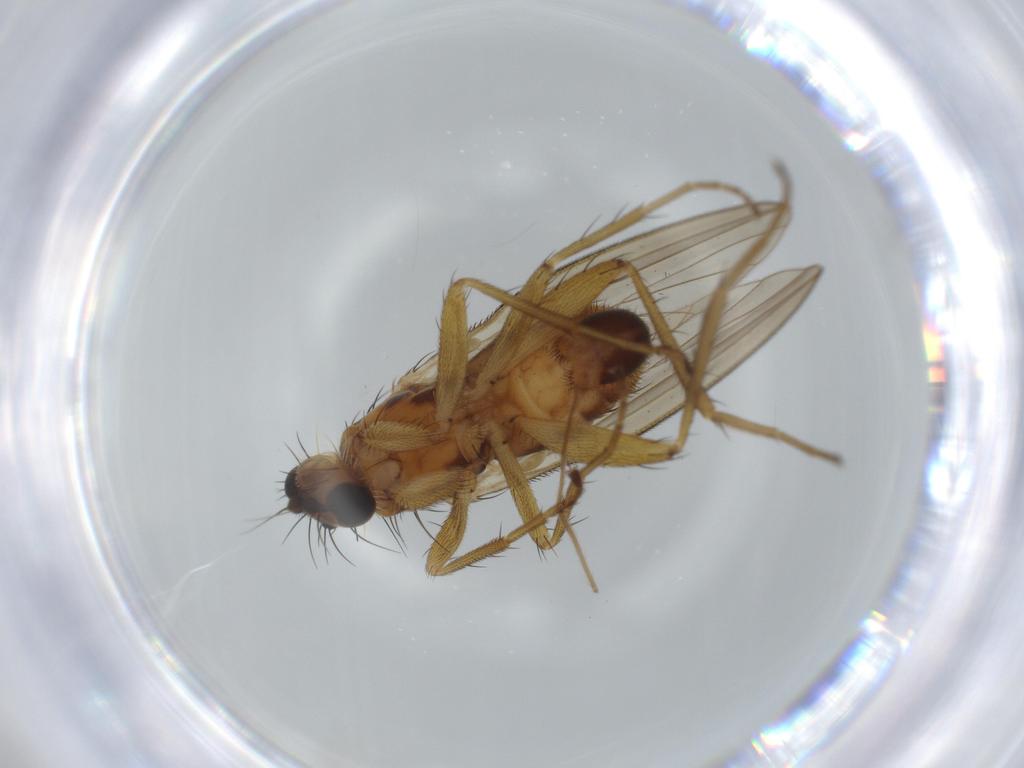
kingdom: Animalia
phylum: Arthropoda
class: Insecta
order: Diptera
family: Lonchopteridae
